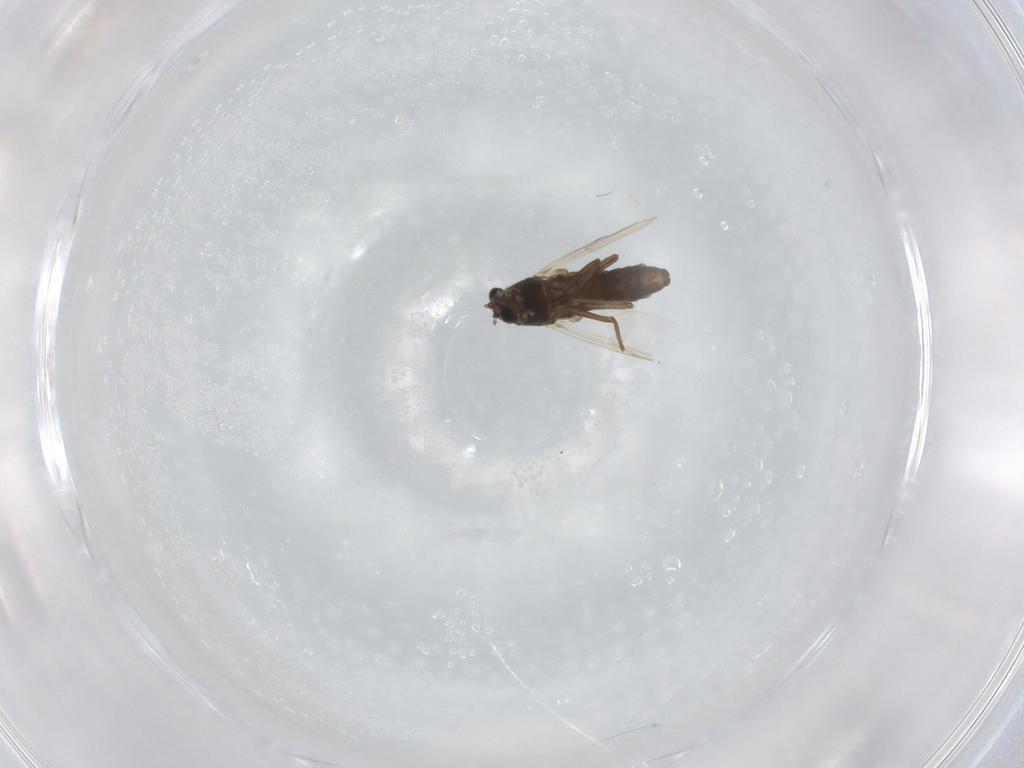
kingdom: Animalia
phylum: Arthropoda
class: Insecta
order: Diptera
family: Chironomidae
